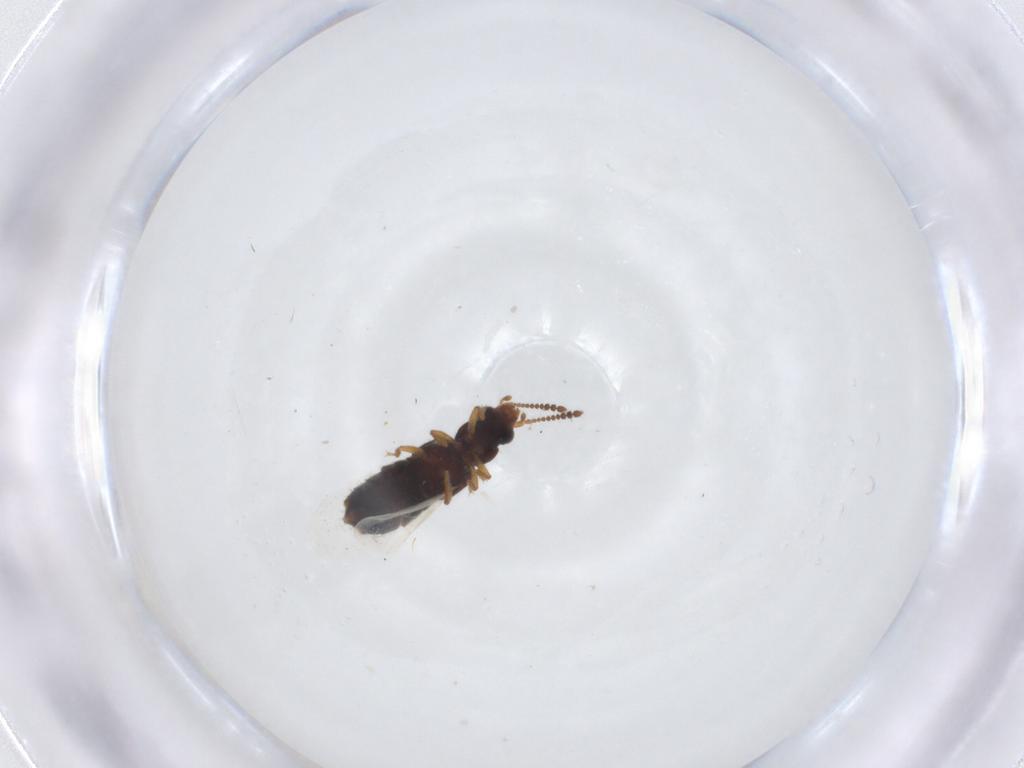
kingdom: Animalia
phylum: Arthropoda
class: Insecta
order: Coleoptera
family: Staphylinidae
